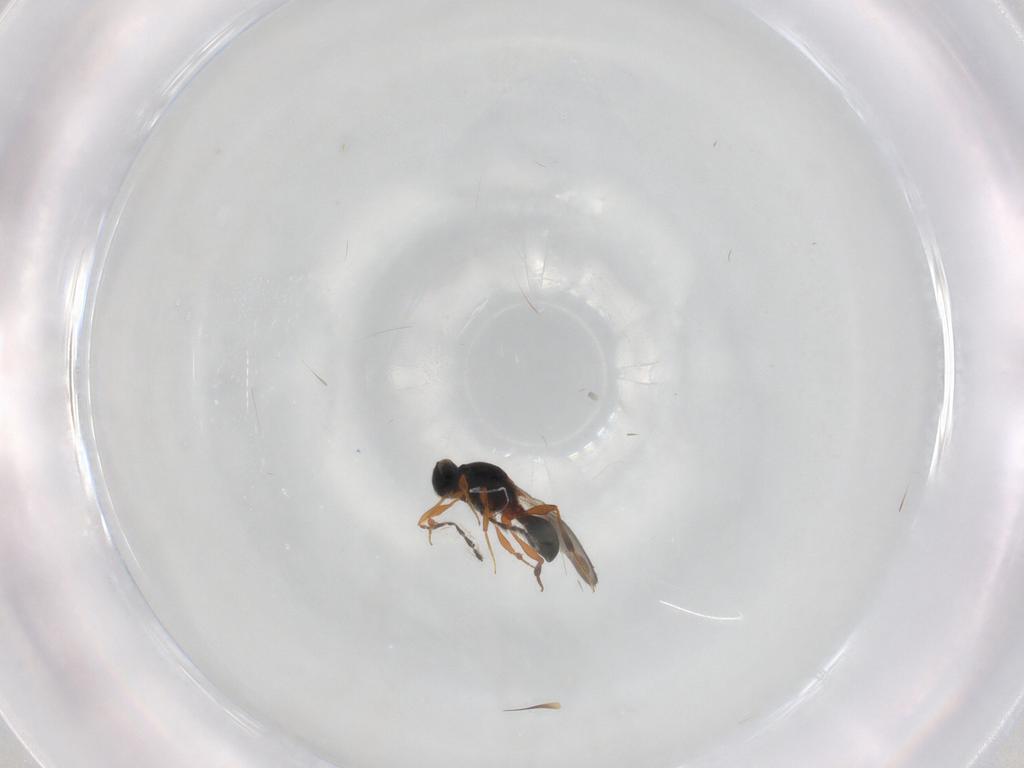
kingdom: Animalia
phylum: Arthropoda
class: Insecta
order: Hymenoptera
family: Platygastridae
